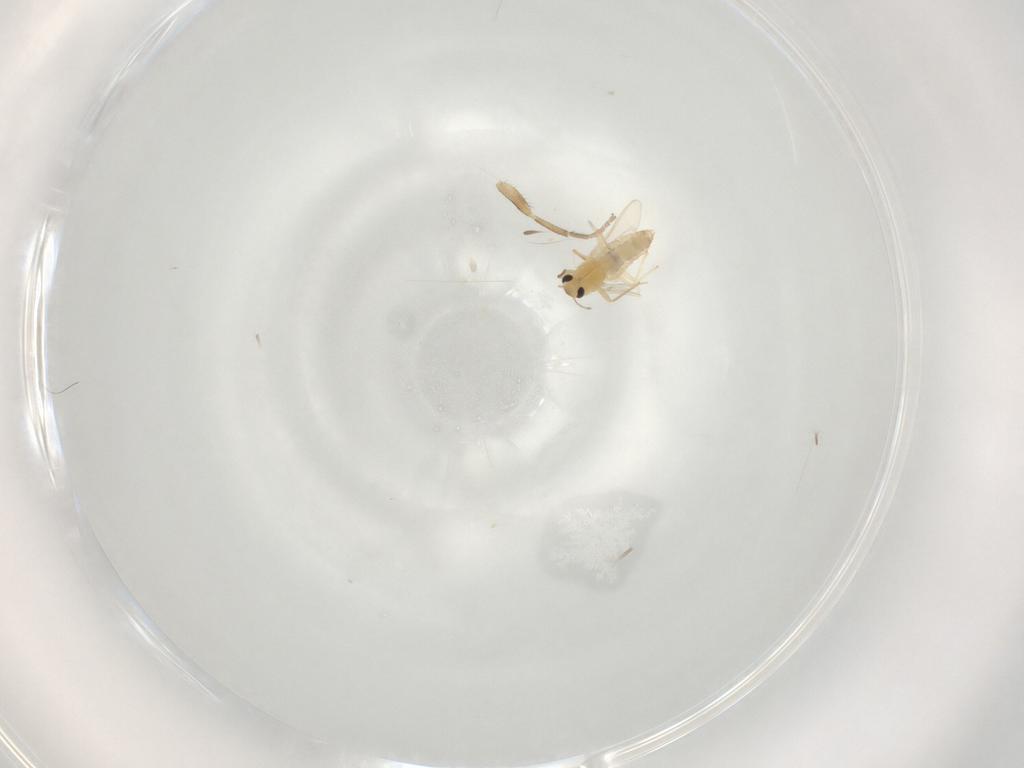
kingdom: Animalia
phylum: Arthropoda
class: Insecta
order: Diptera
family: Milichiidae
